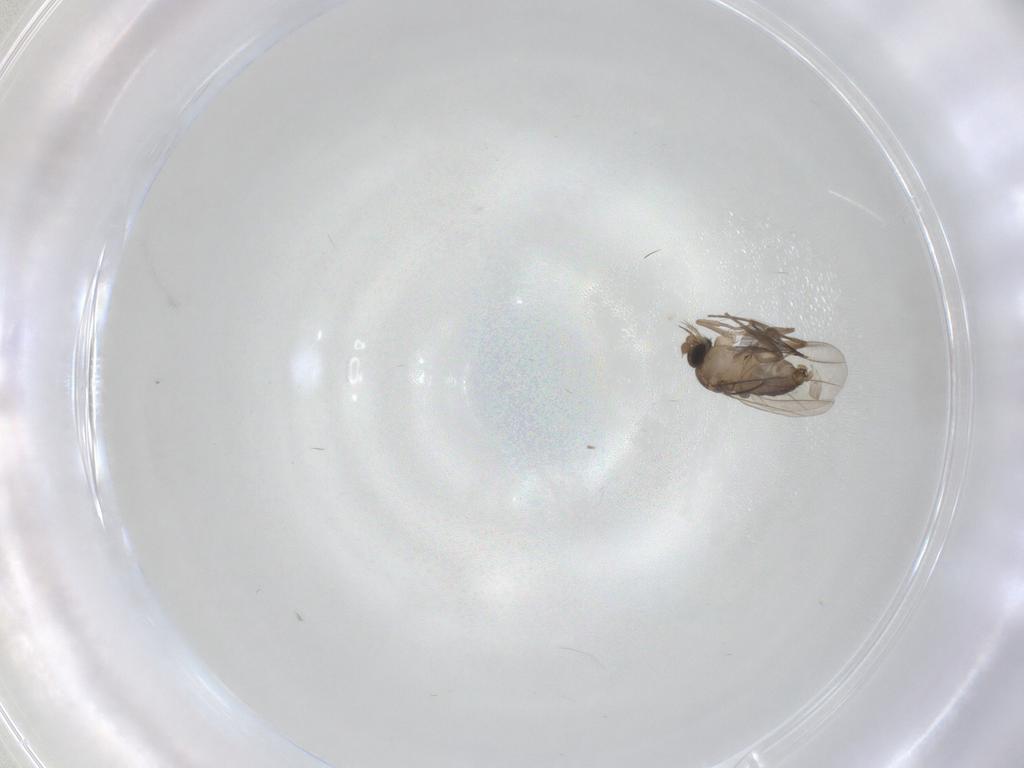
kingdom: Animalia
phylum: Arthropoda
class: Insecta
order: Diptera
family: Ceratopogonidae
